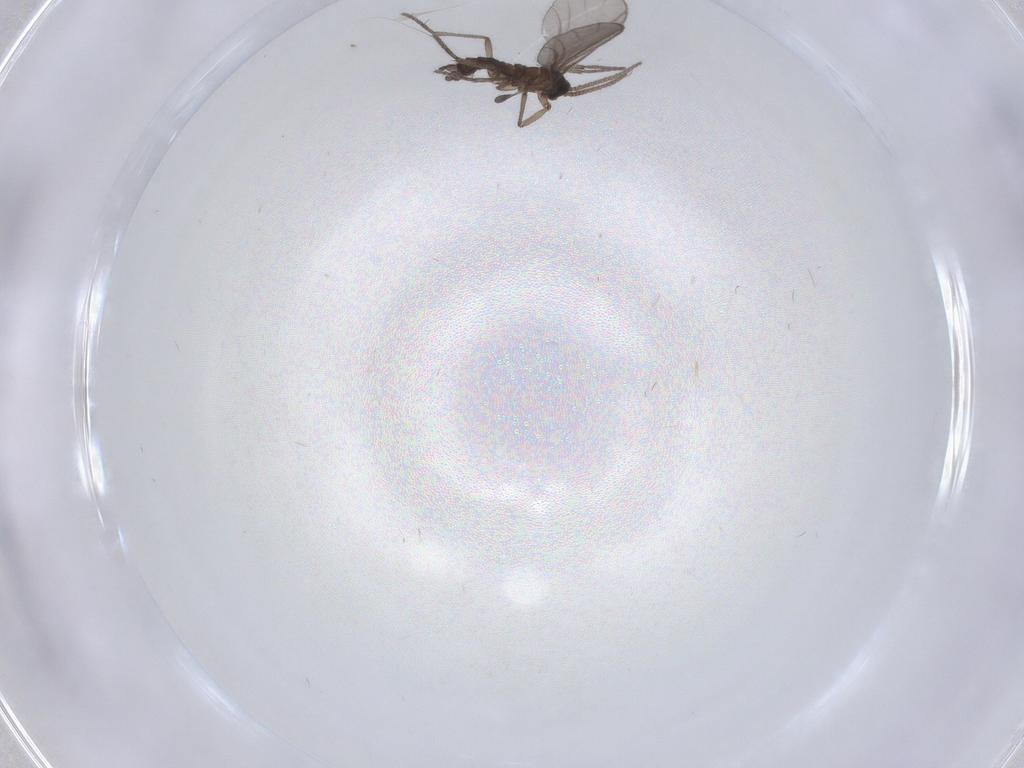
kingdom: Animalia
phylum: Arthropoda
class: Insecta
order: Diptera
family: Sciaridae
